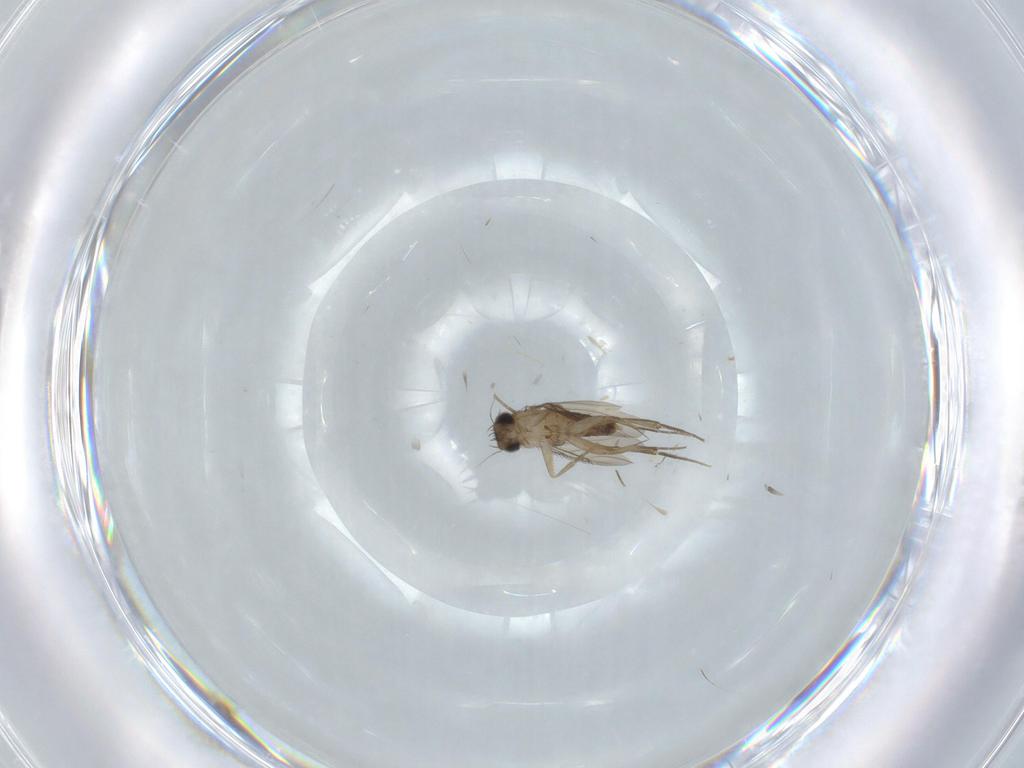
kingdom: Animalia
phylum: Arthropoda
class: Insecta
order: Diptera
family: Phoridae
